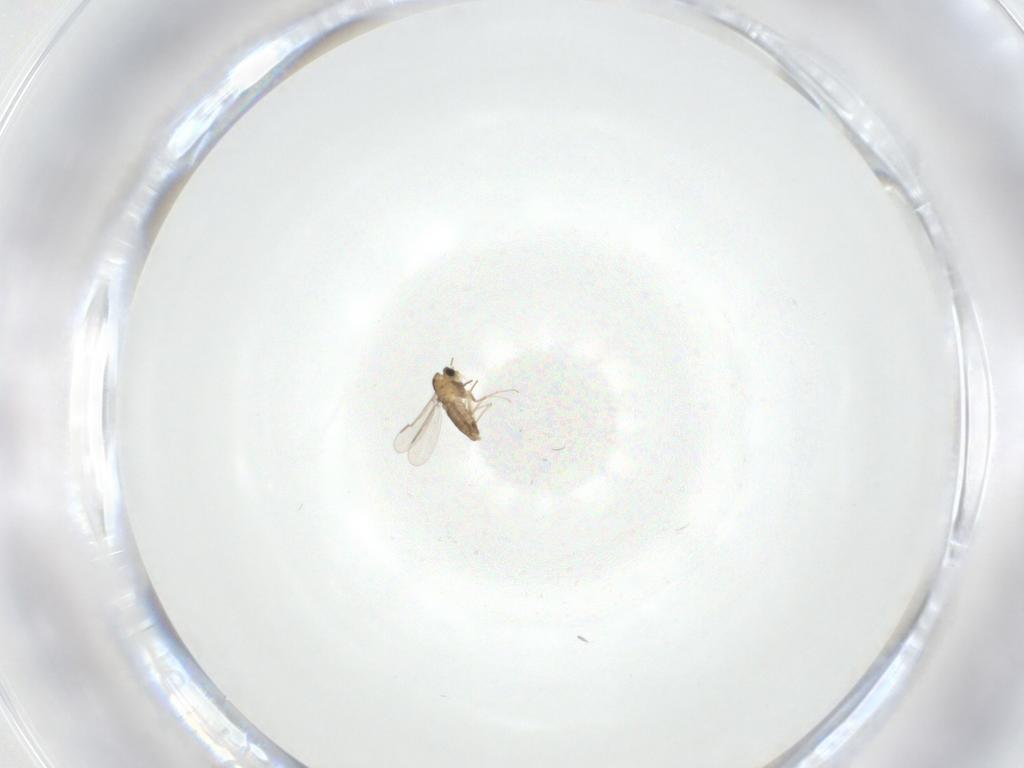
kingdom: Animalia
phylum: Arthropoda
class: Insecta
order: Diptera
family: Chironomidae
